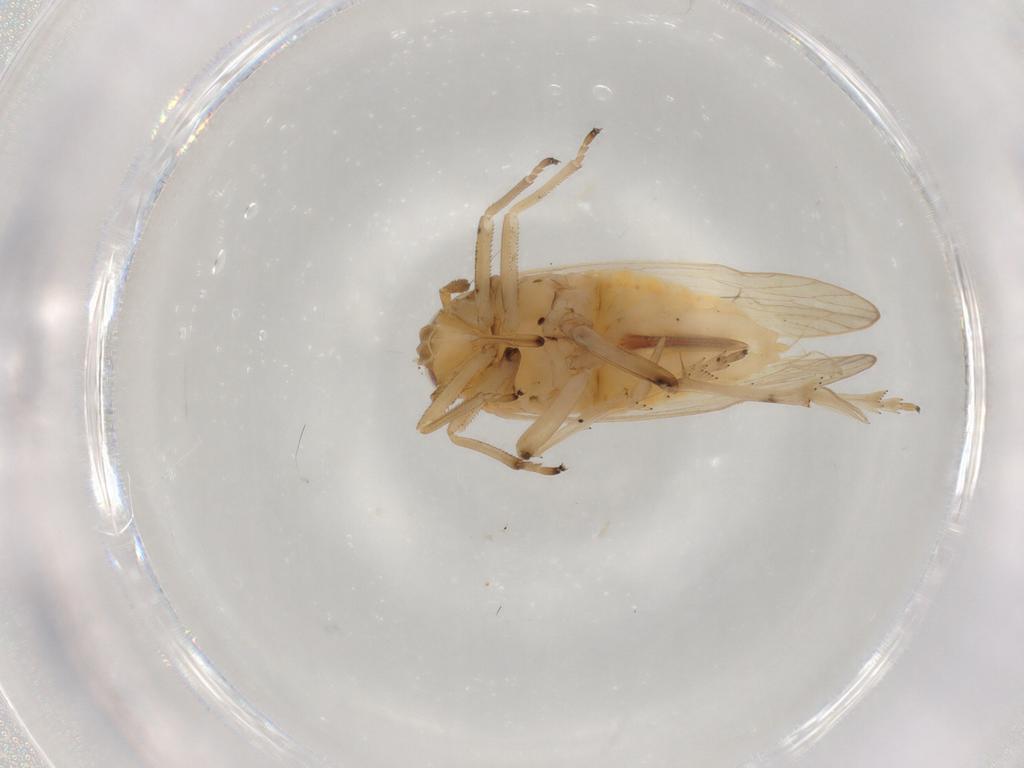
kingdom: Animalia
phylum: Arthropoda
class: Insecta
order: Hemiptera
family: Delphacidae
